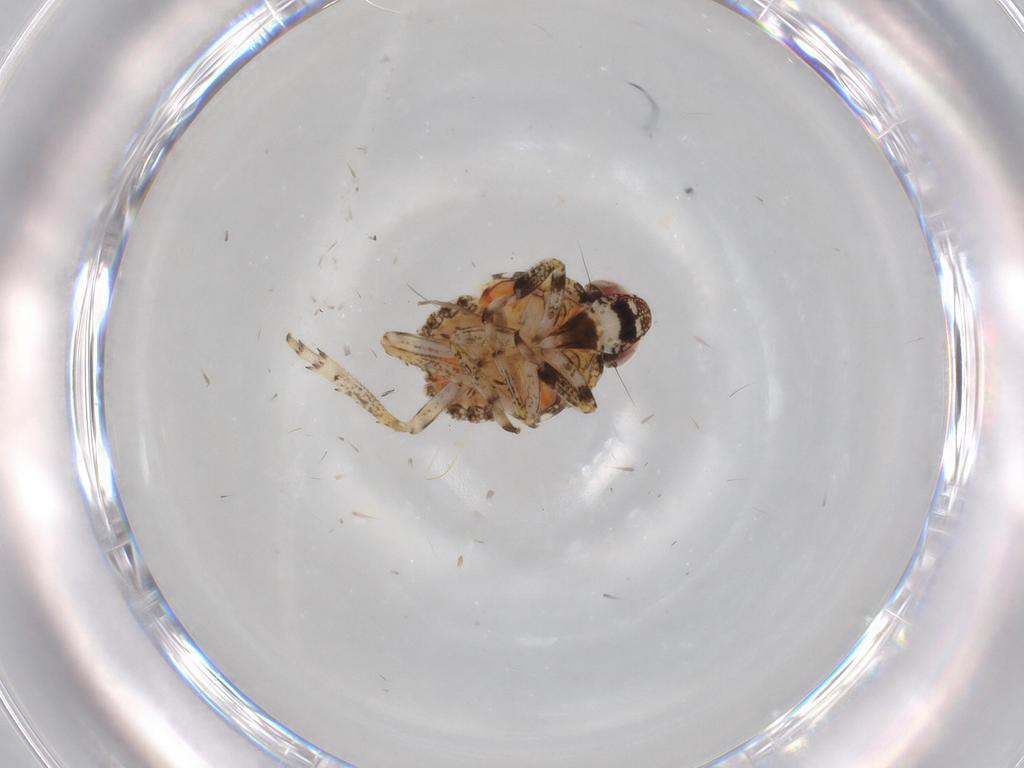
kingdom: Animalia
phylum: Arthropoda
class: Insecta
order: Hemiptera
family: Issidae
